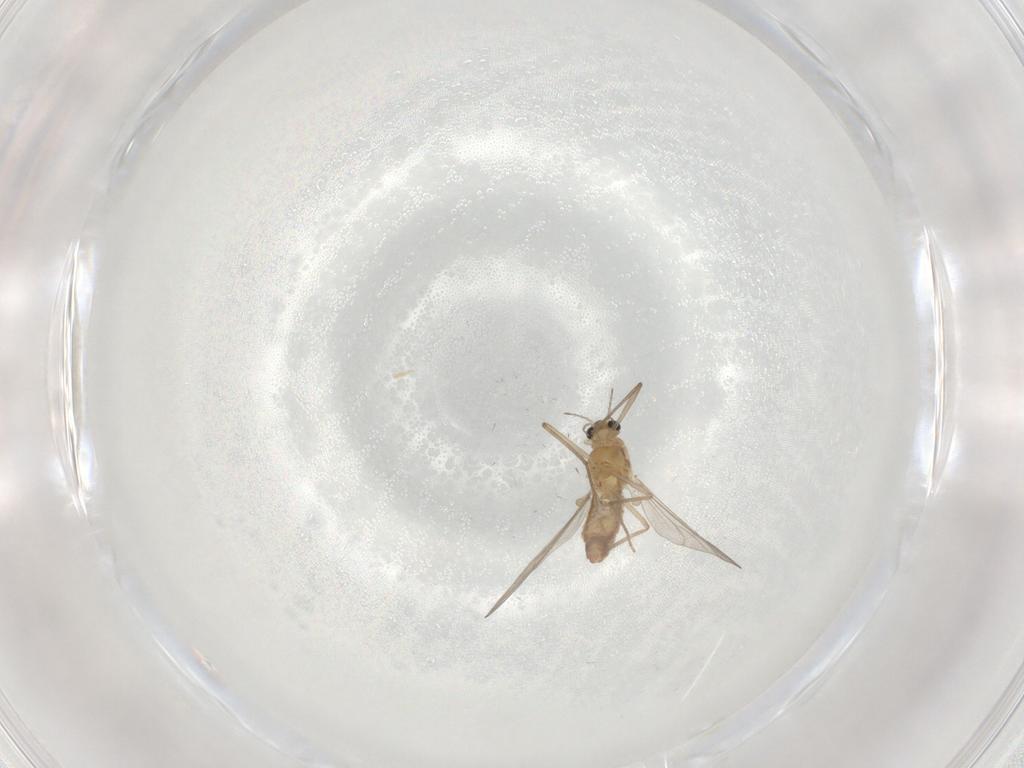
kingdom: Animalia
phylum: Arthropoda
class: Insecta
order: Diptera
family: Chironomidae
